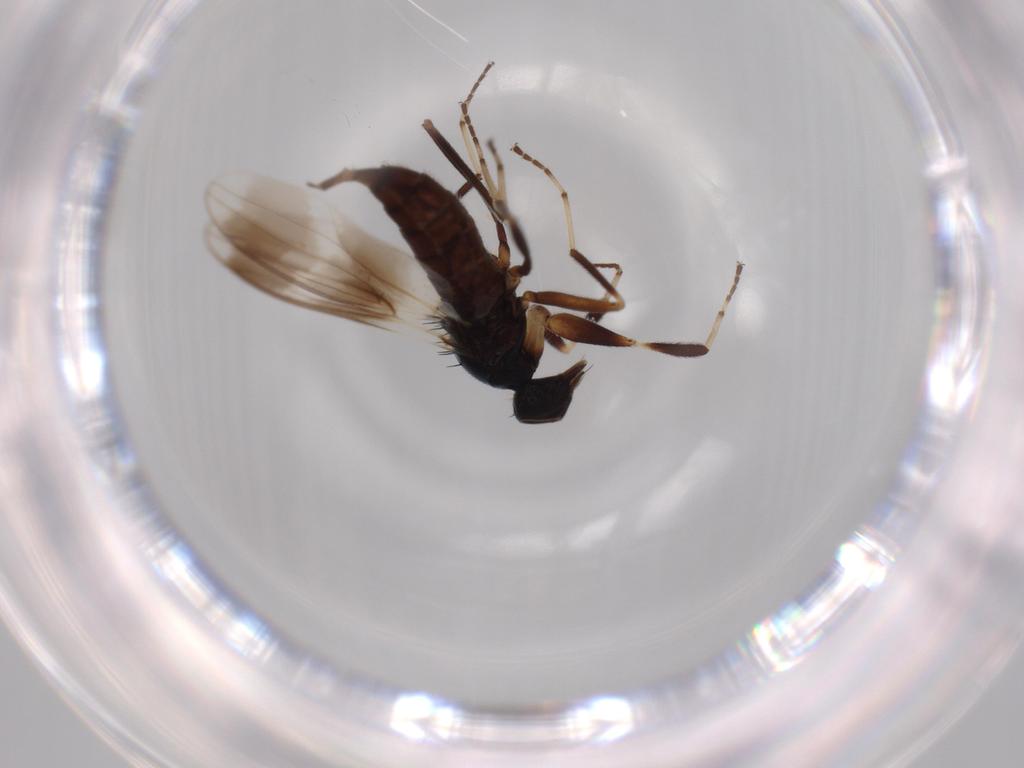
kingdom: Animalia
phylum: Arthropoda
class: Insecta
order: Diptera
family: Hybotidae
